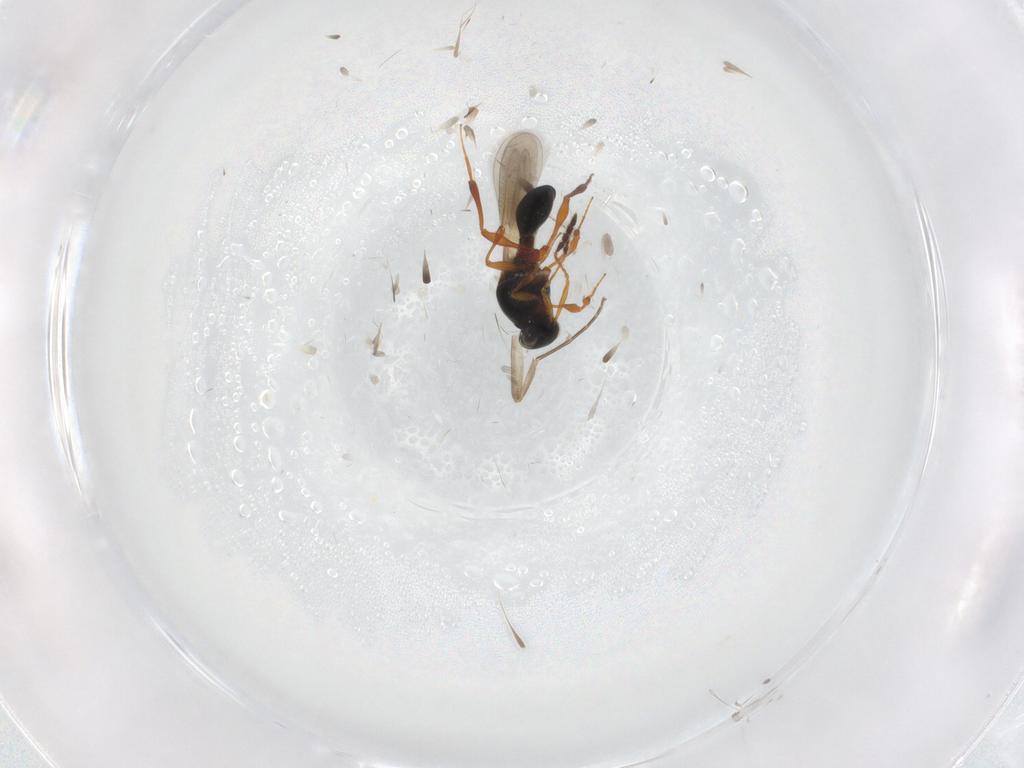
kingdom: Animalia
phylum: Arthropoda
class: Insecta
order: Hymenoptera
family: Platygastridae
